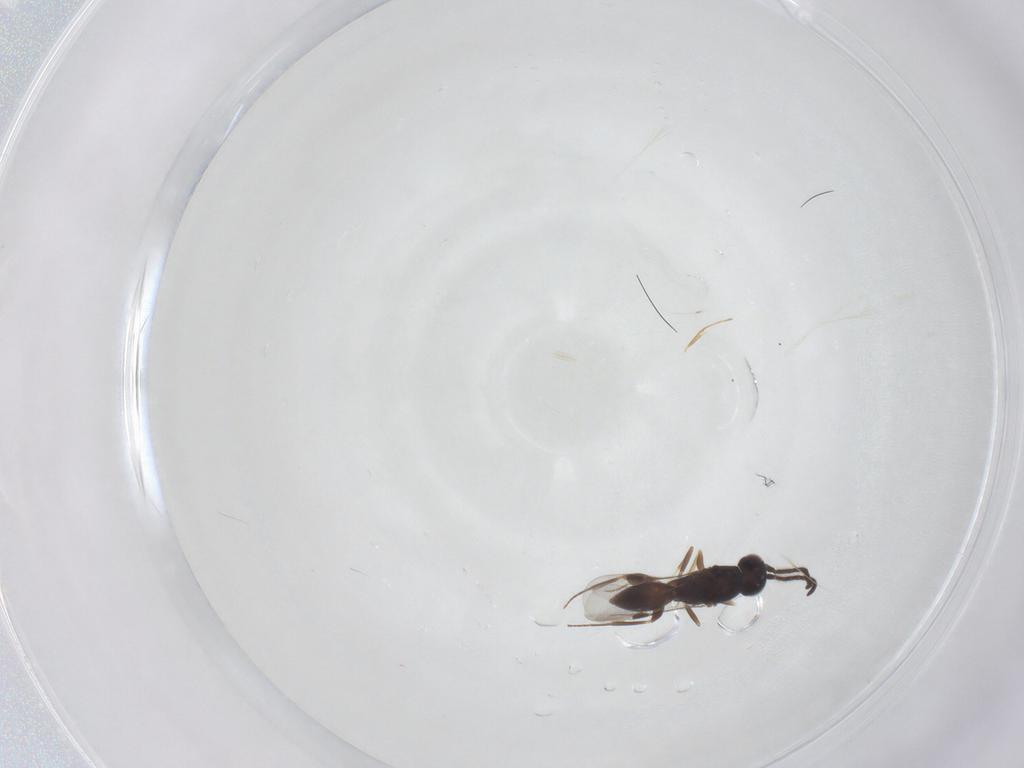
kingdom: Animalia
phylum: Arthropoda
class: Insecta
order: Hymenoptera
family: Megaspilidae
